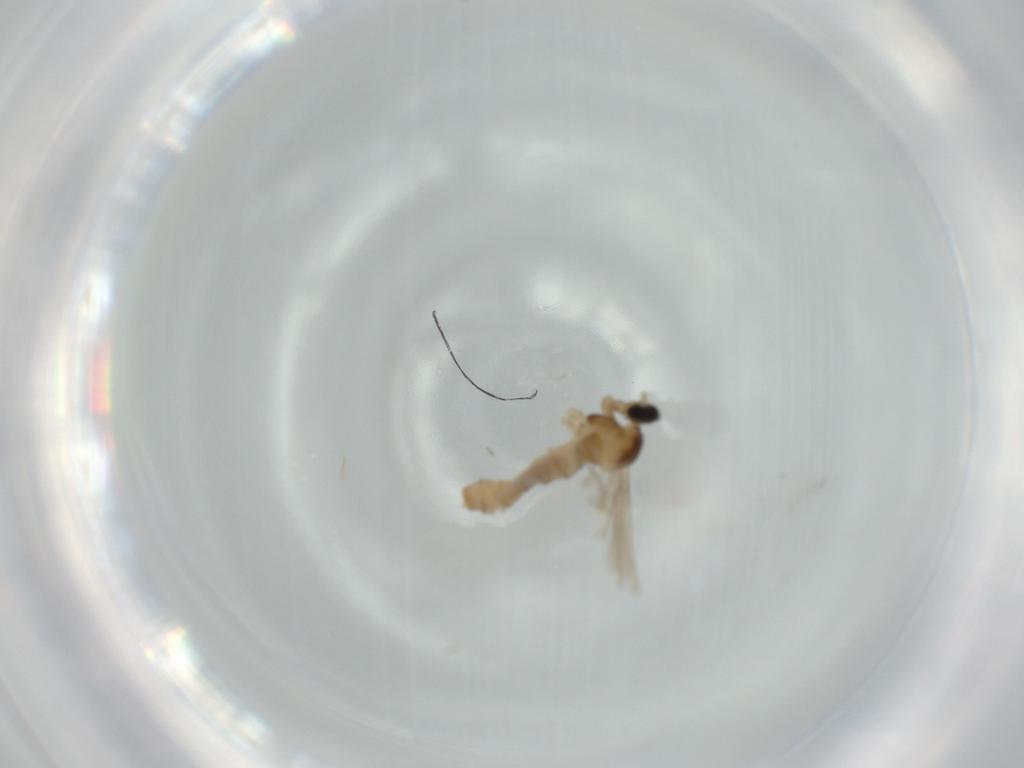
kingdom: Animalia
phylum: Arthropoda
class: Insecta
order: Diptera
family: Cecidomyiidae
